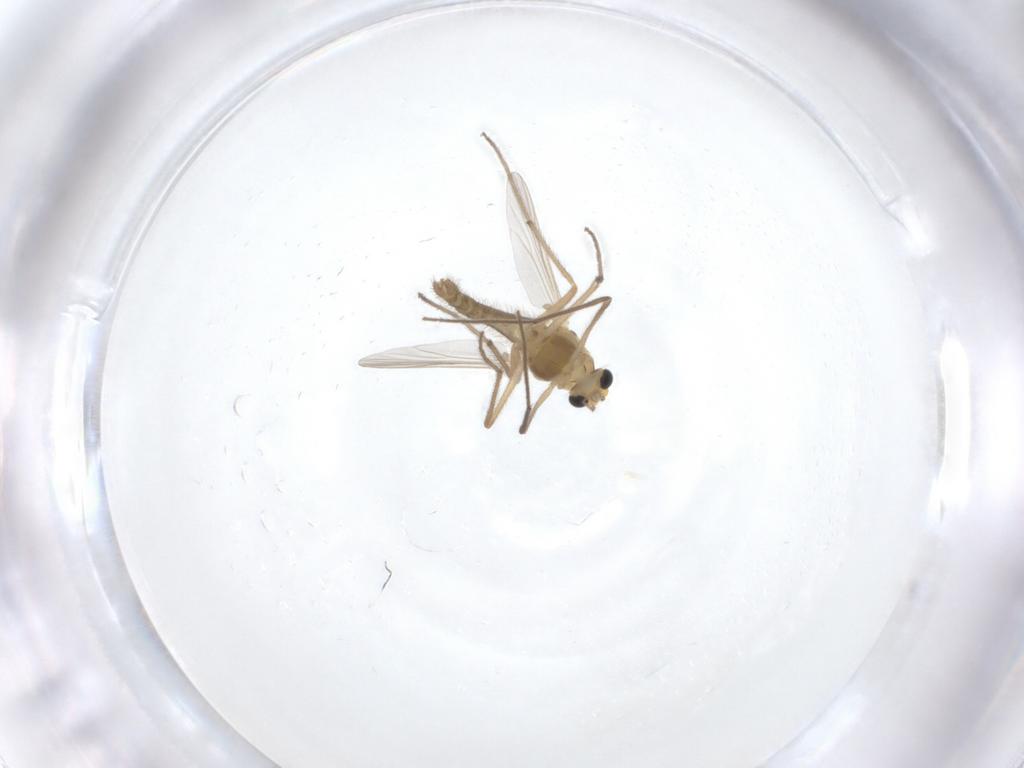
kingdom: Animalia
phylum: Arthropoda
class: Insecta
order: Diptera
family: Chironomidae
